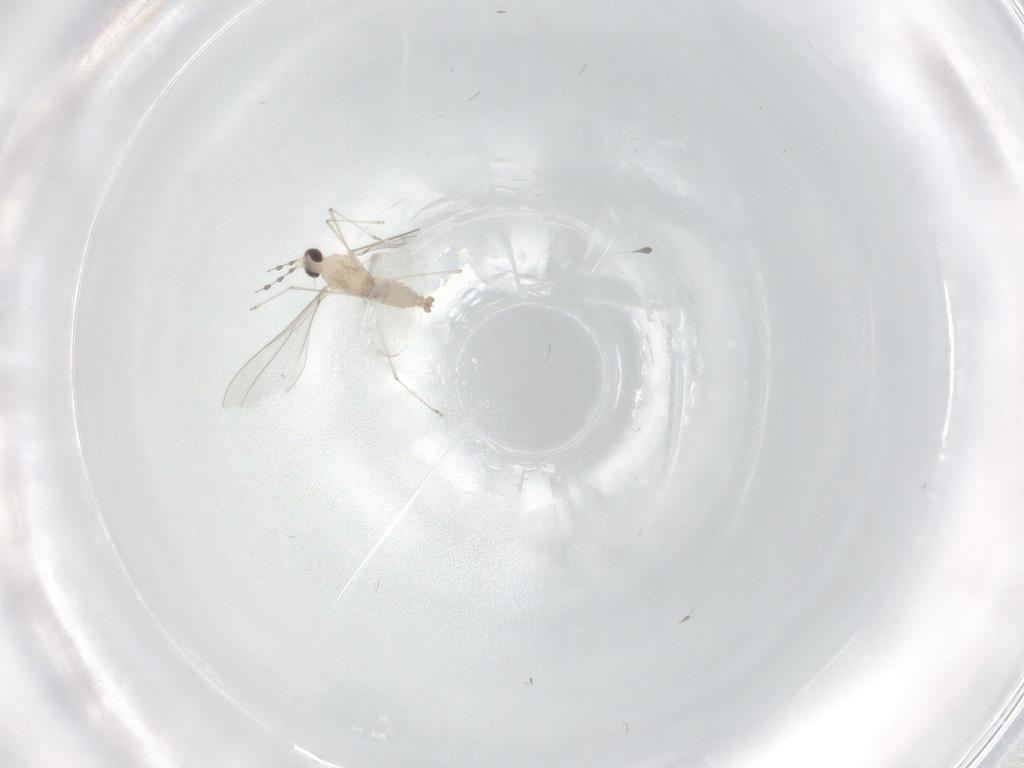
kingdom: Animalia
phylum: Arthropoda
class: Insecta
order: Diptera
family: Cecidomyiidae
